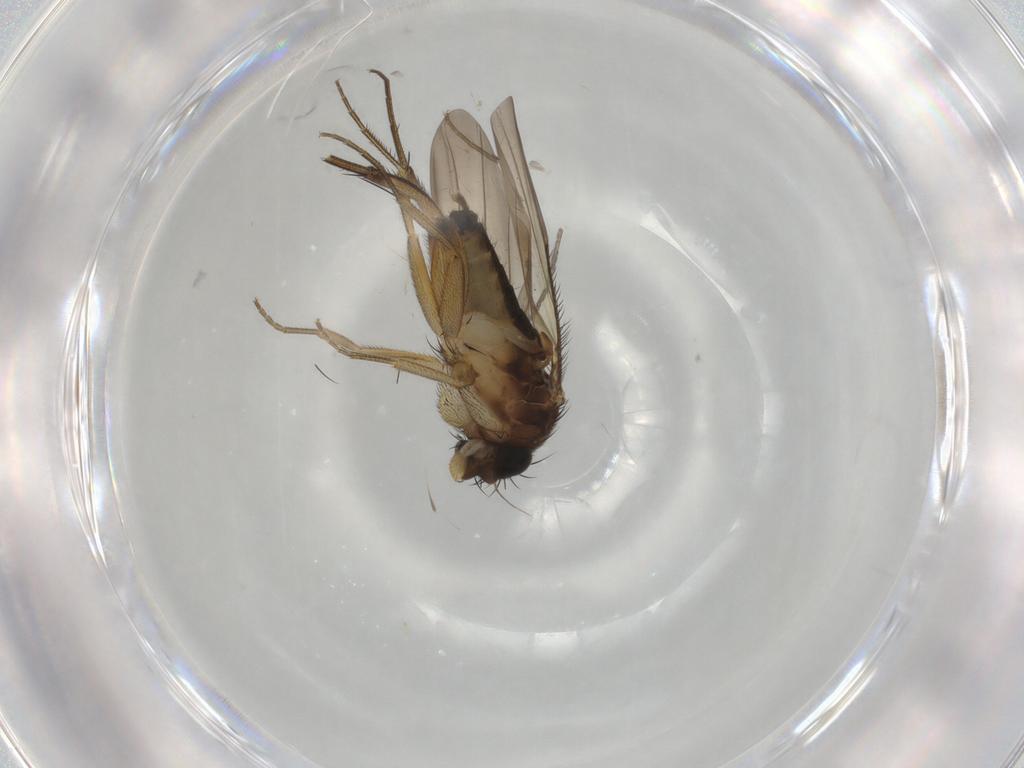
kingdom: Animalia
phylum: Arthropoda
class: Insecta
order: Diptera
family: Phoridae
